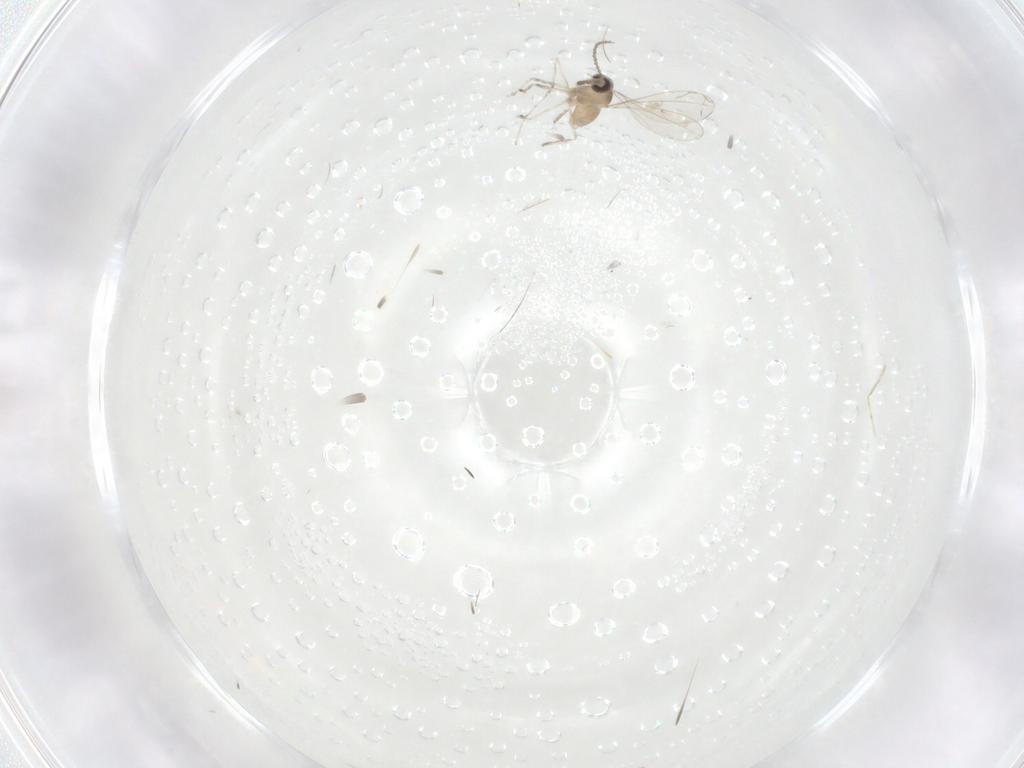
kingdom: Animalia
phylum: Arthropoda
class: Insecta
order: Diptera
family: Cecidomyiidae
